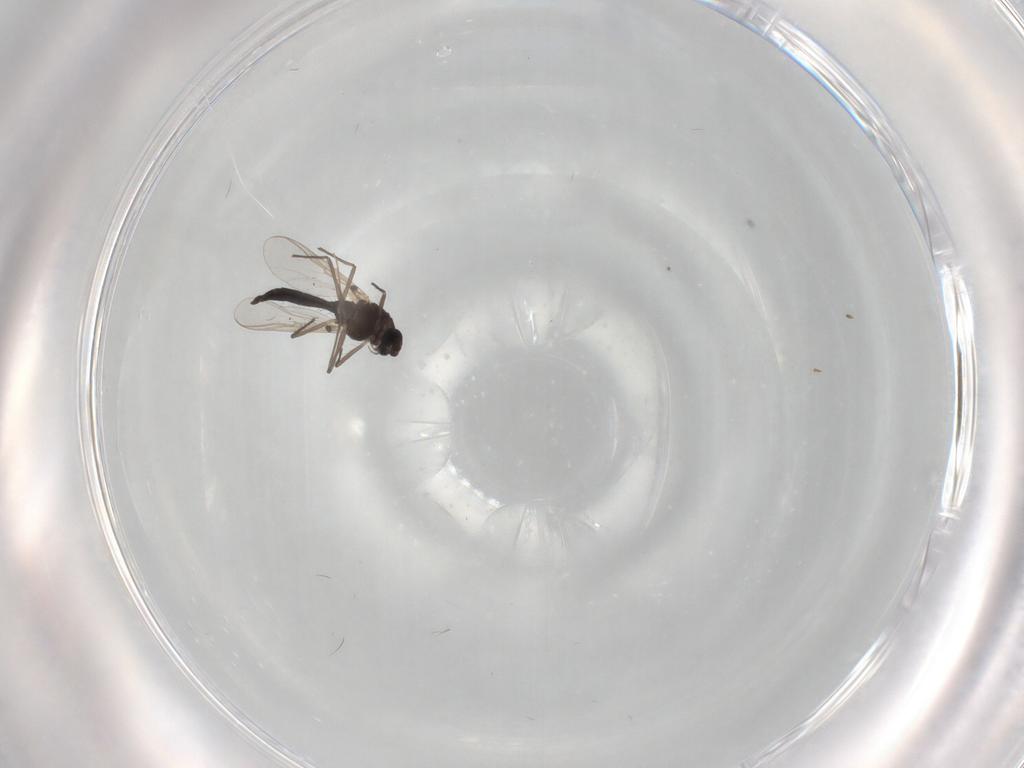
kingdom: Animalia
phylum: Arthropoda
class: Insecta
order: Diptera
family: Chironomidae
